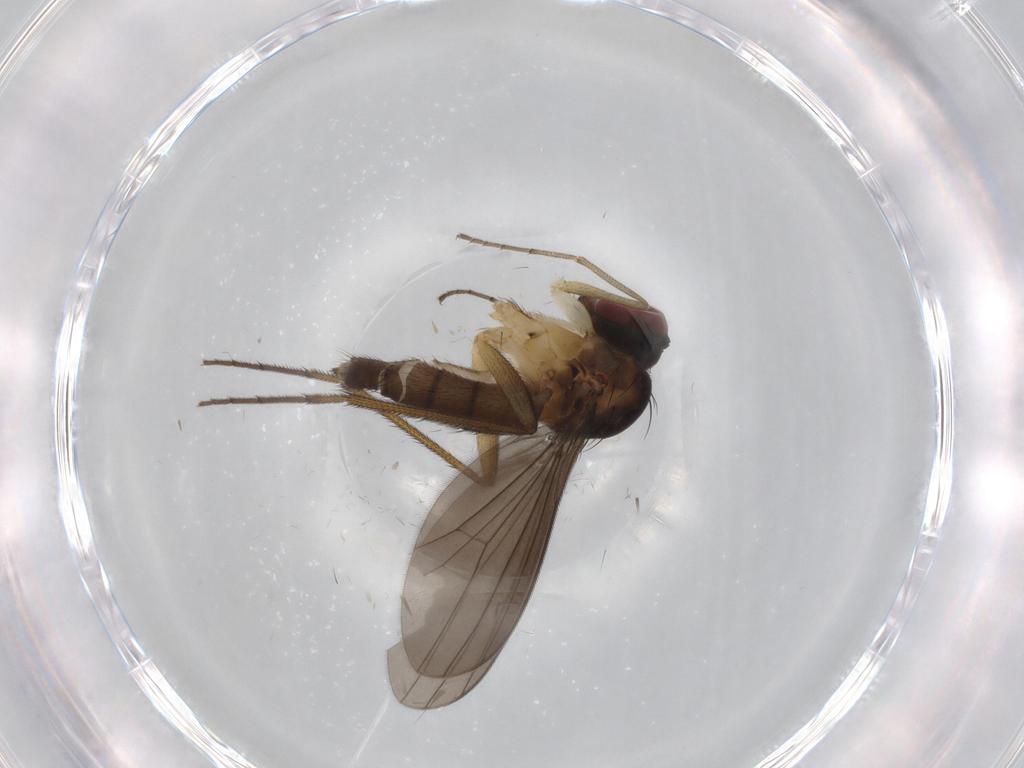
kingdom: Animalia
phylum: Arthropoda
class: Insecta
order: Diptera
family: Dolichopodidae
